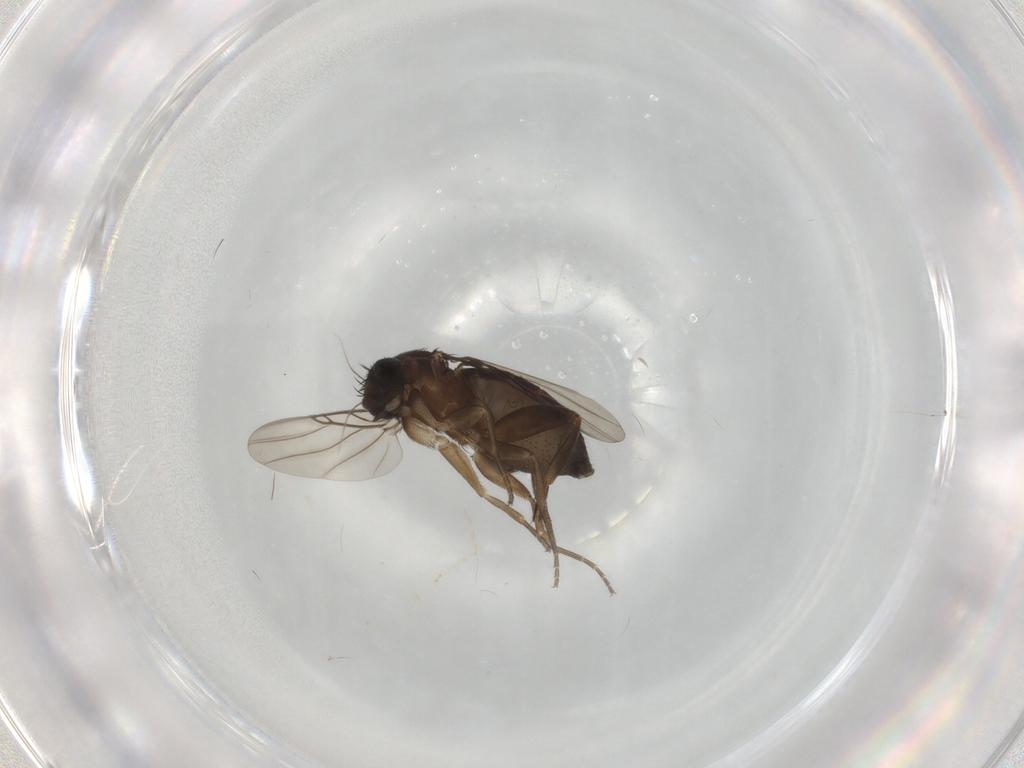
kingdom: Animalia
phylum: Arthropoda
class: Insecta
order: Diptera
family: Phoridae
